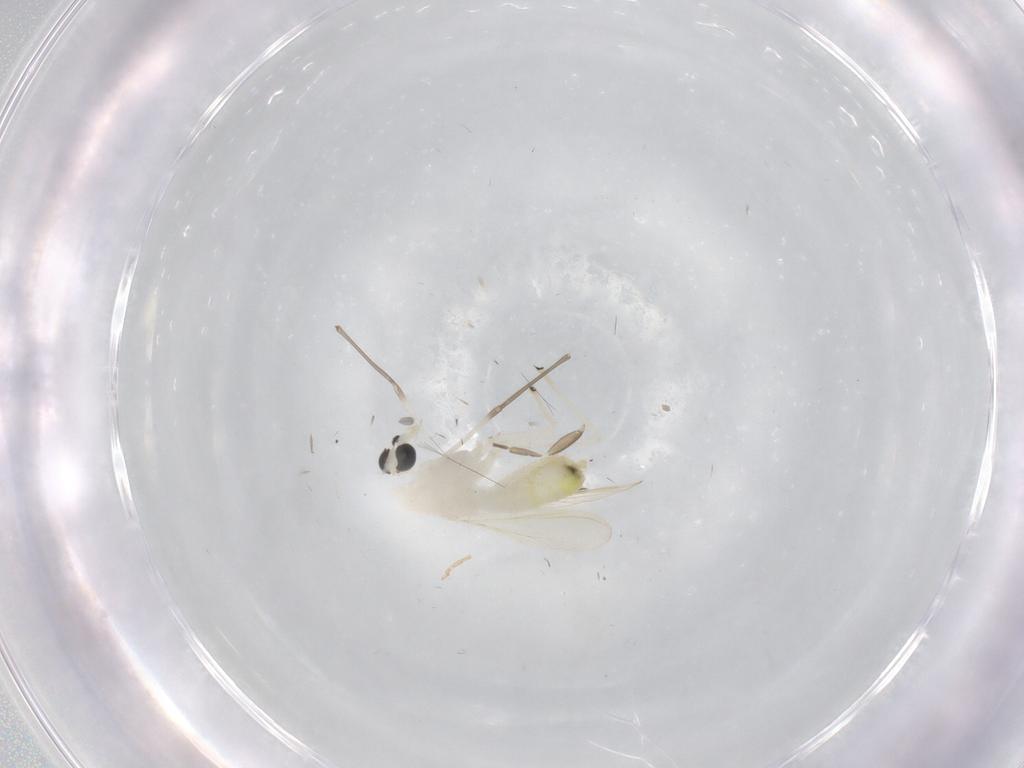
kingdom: Animalia
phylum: Arthropoda
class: Insecta
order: Diptera
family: Chironomidae
